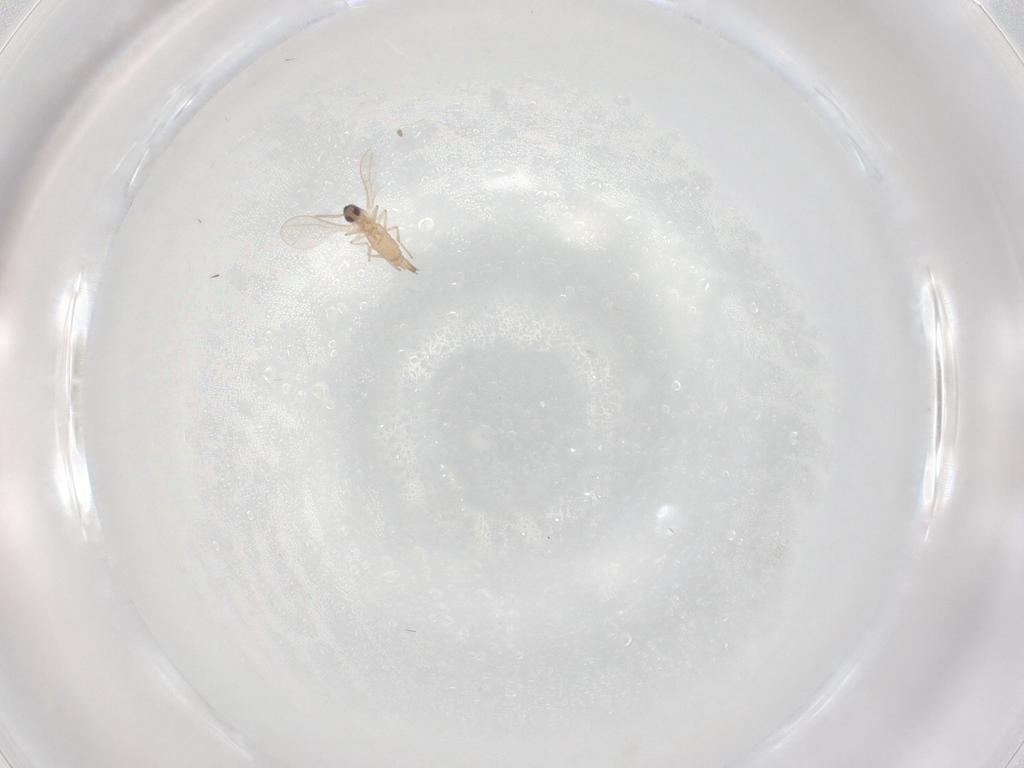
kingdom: Animalia
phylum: Arthropoda
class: Insecta
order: Diptera
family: Cecidomyiidae
